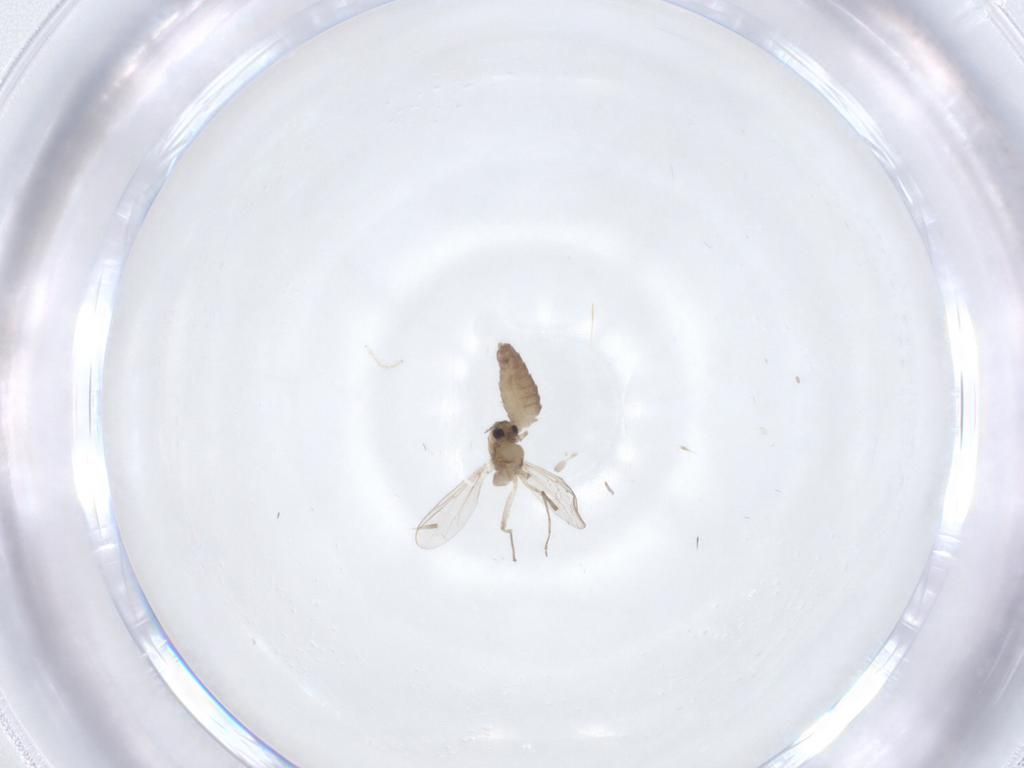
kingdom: Animalia
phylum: Arthropoda
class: Insecta
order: Diptera
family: Chironomidae
